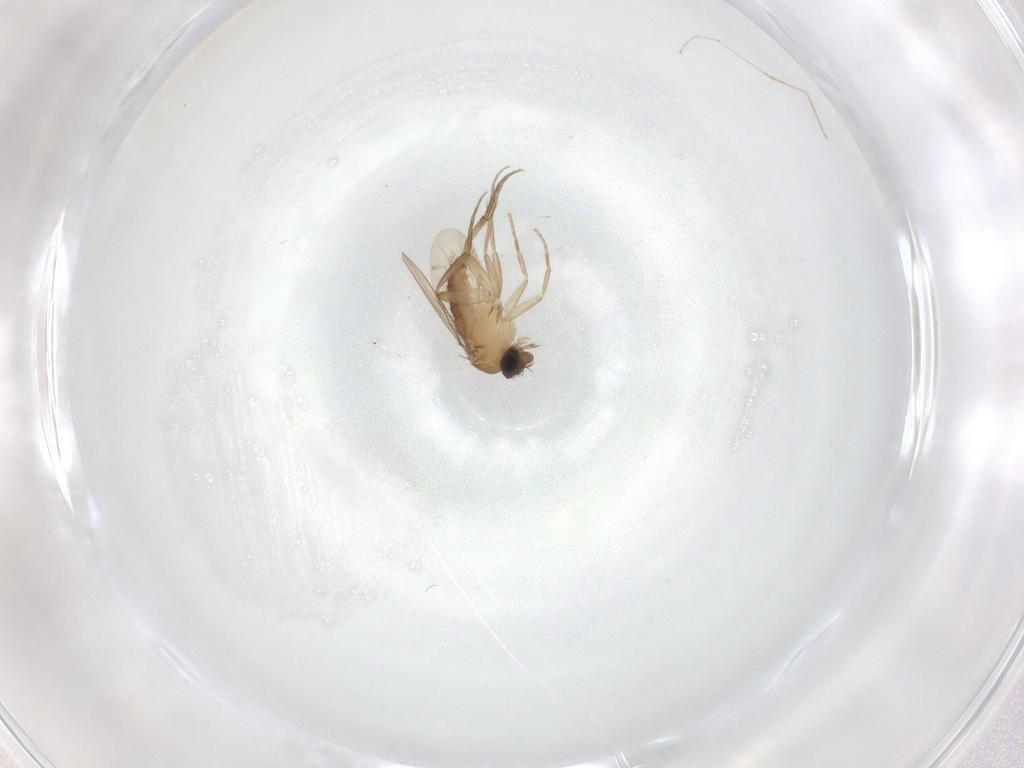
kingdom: Animalia
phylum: Arthropoda
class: Insecta
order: Diptera
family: Phoridae
